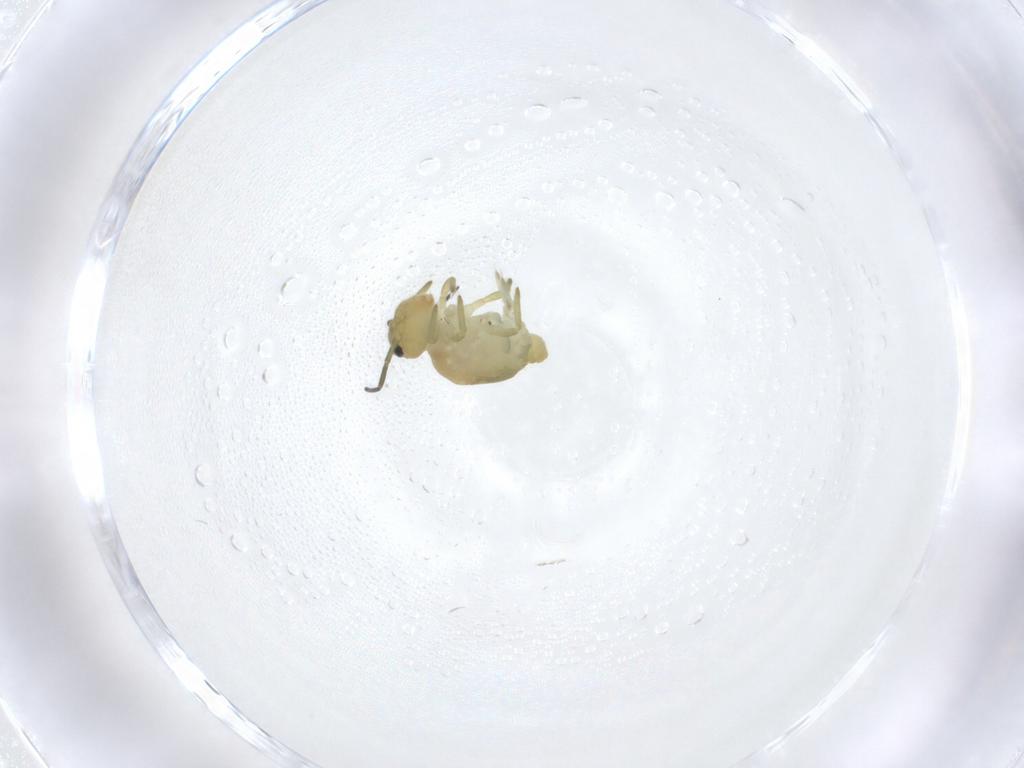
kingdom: Animalia
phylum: Arthropoda
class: Collembola
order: Symphypleona
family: Sminthuridae
